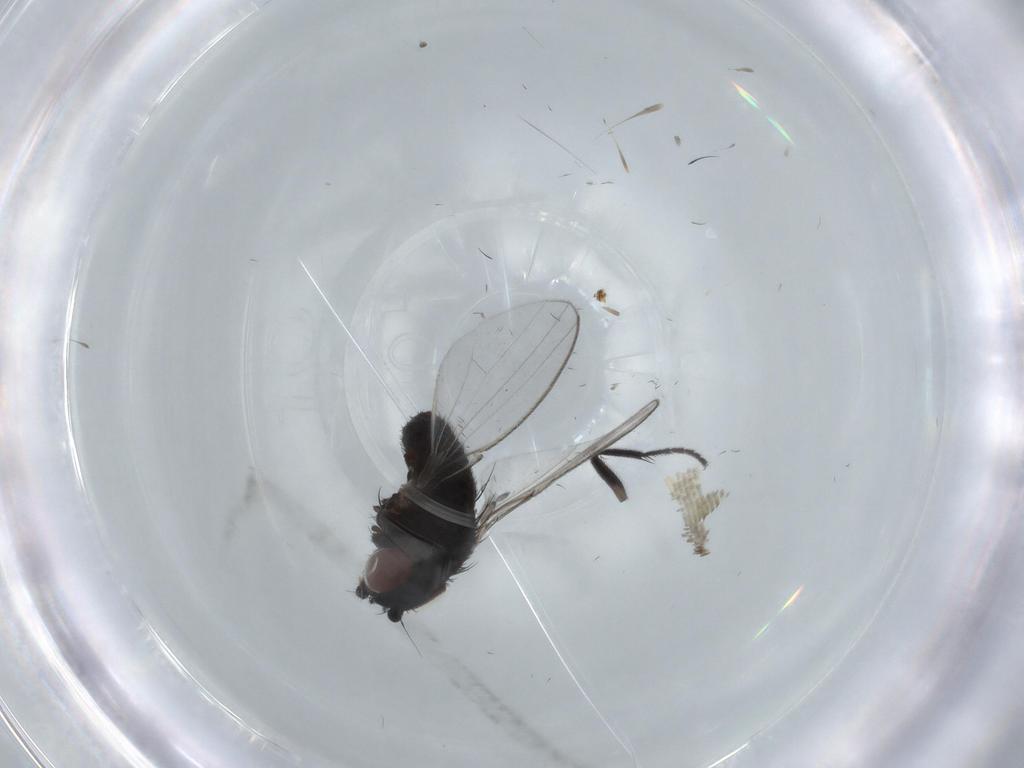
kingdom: Animalia
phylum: Arthropoda
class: Insecta
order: Diptera
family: Milichiidae
